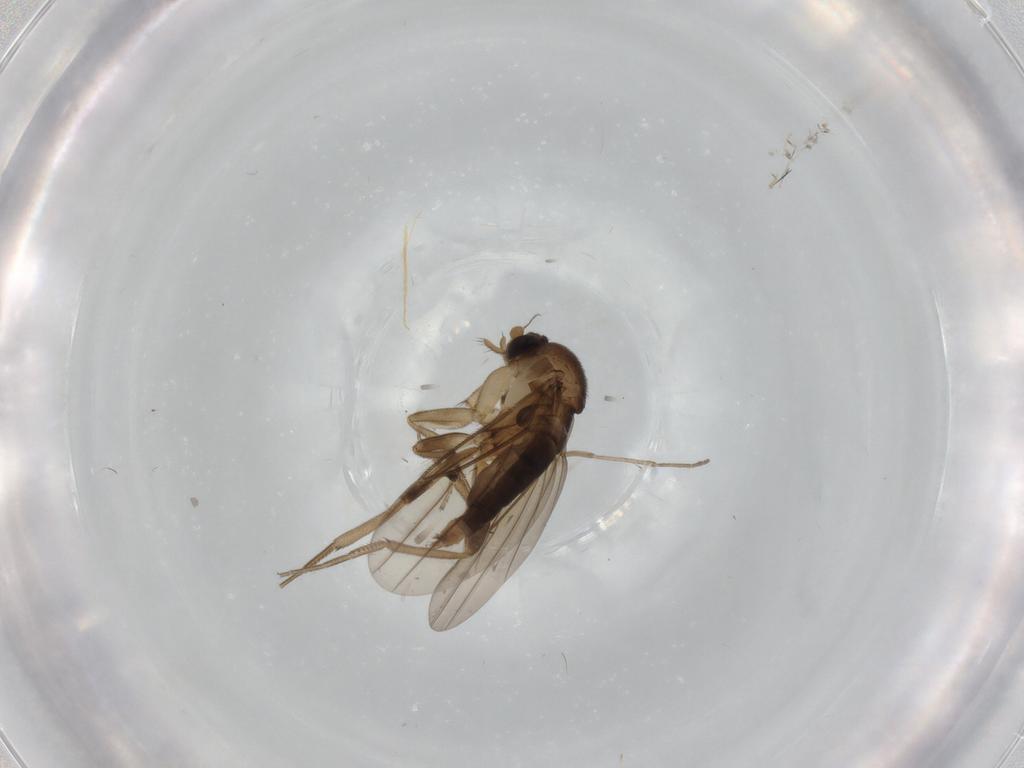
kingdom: Animalia
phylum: Arthropoda
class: Insecta
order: Diptera
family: Psychodidae
